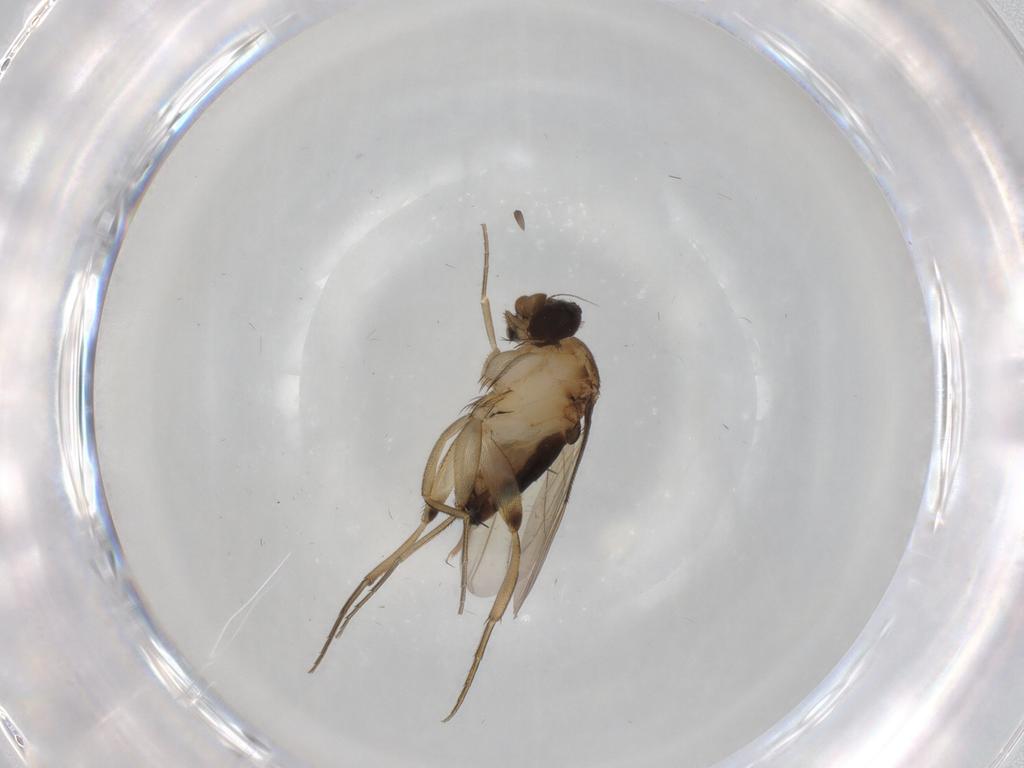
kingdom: Animalia
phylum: Arthropoda
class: Insecta
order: Diptera
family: Phoridae
